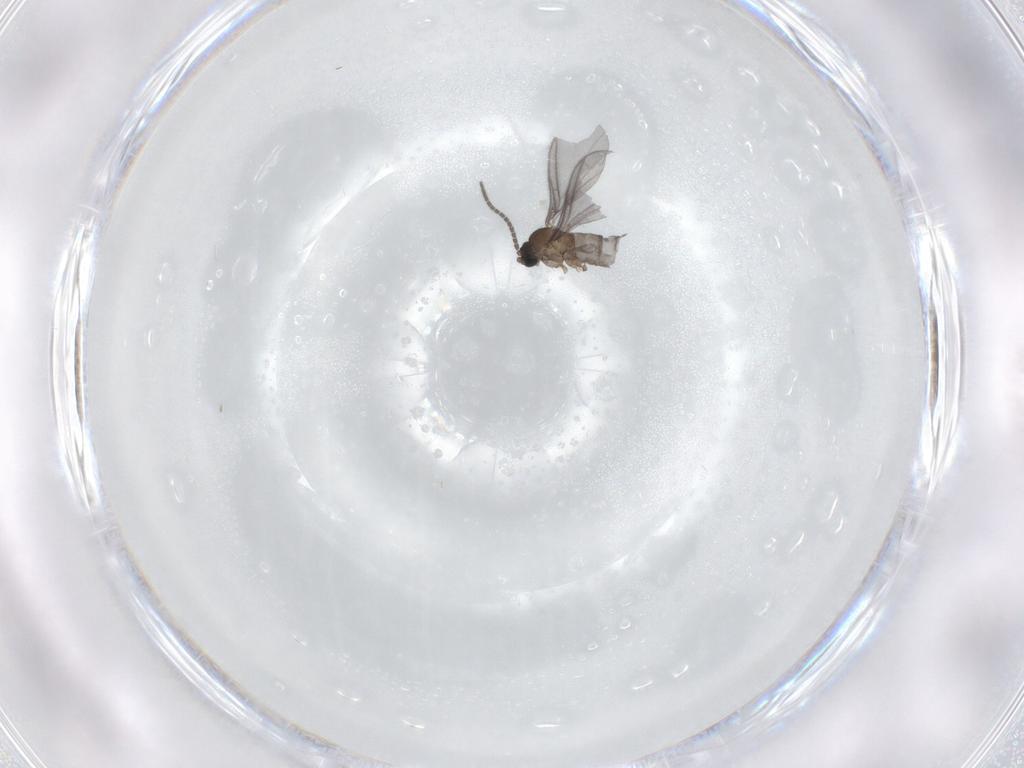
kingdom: Animalia
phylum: Arthropoda
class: Insecta
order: Diptera
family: Sciaridae
